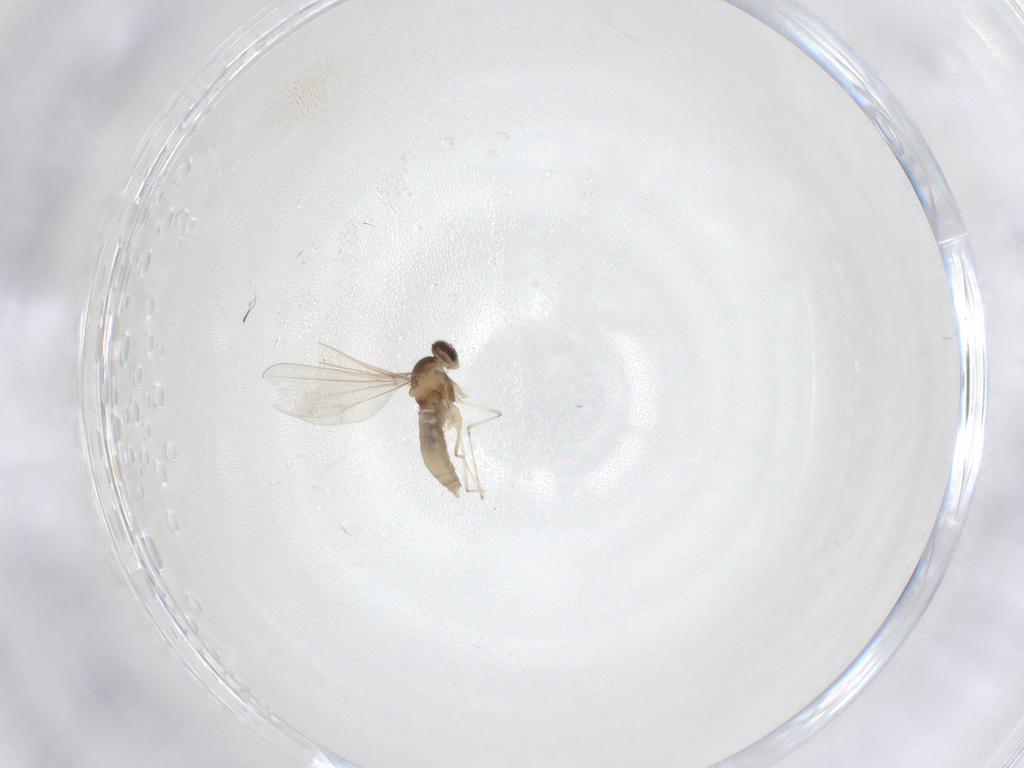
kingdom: Animalia
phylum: Arthropoda
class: Insecta
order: Diptera
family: Cecidomyiidae
